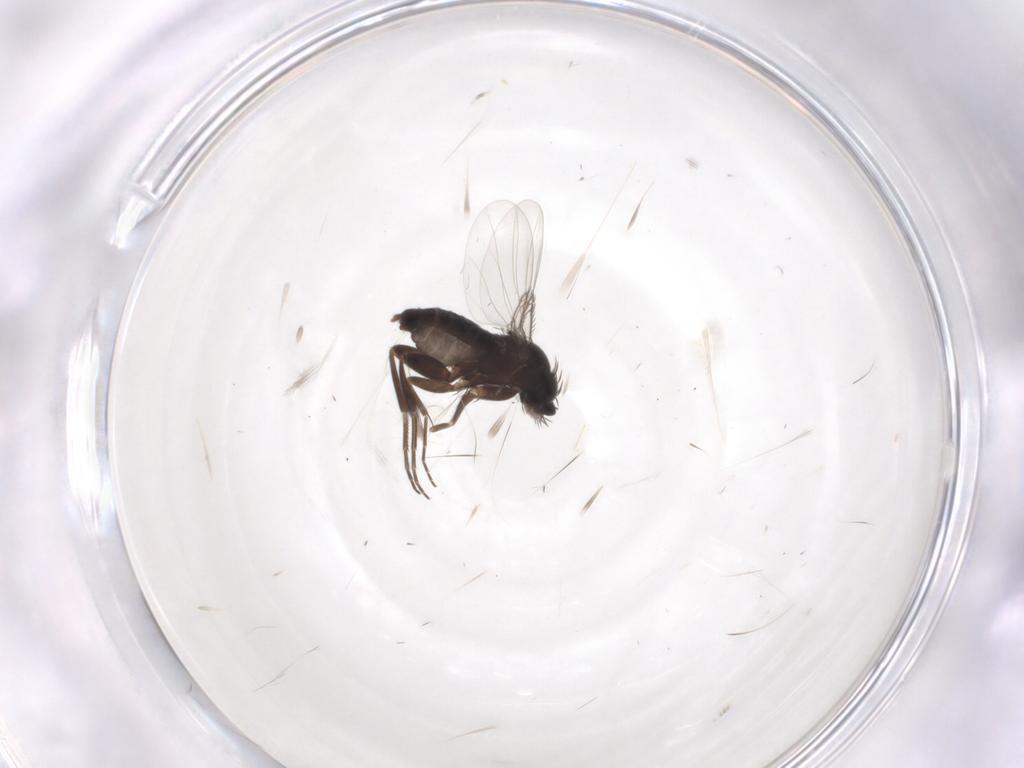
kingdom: Animalia
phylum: Arthropoda
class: Insecta
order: Diptera
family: Phoridae
